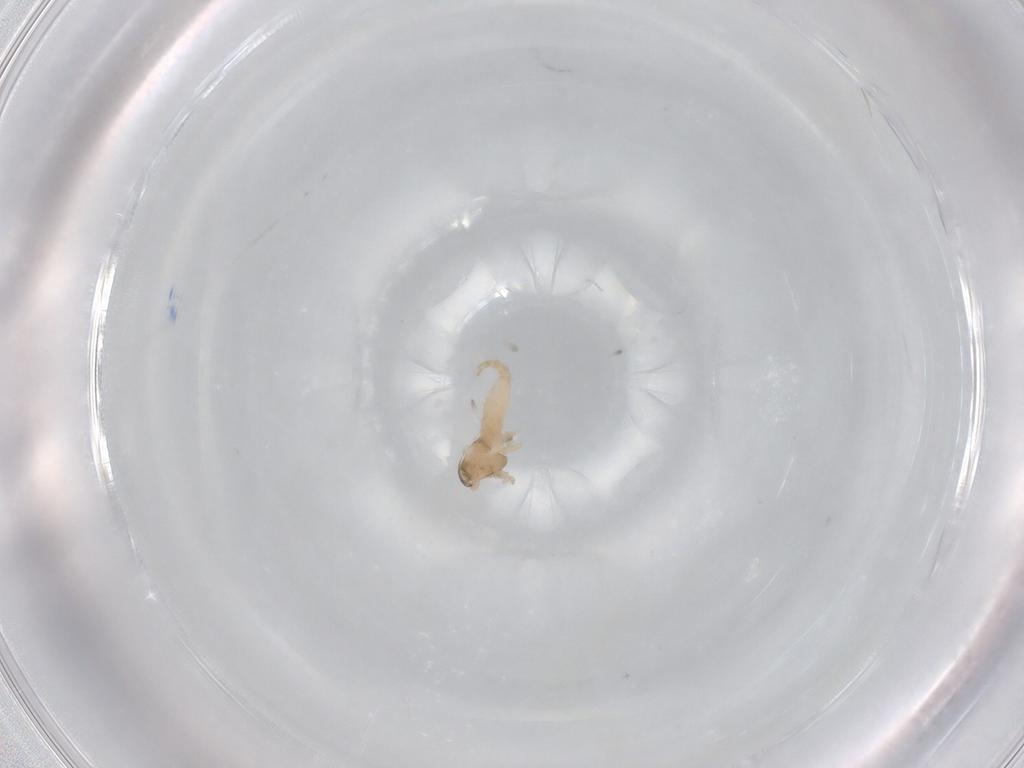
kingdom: Animalia
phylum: Arthropoda
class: Insecta
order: Diptera
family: Cecidomyiidae
